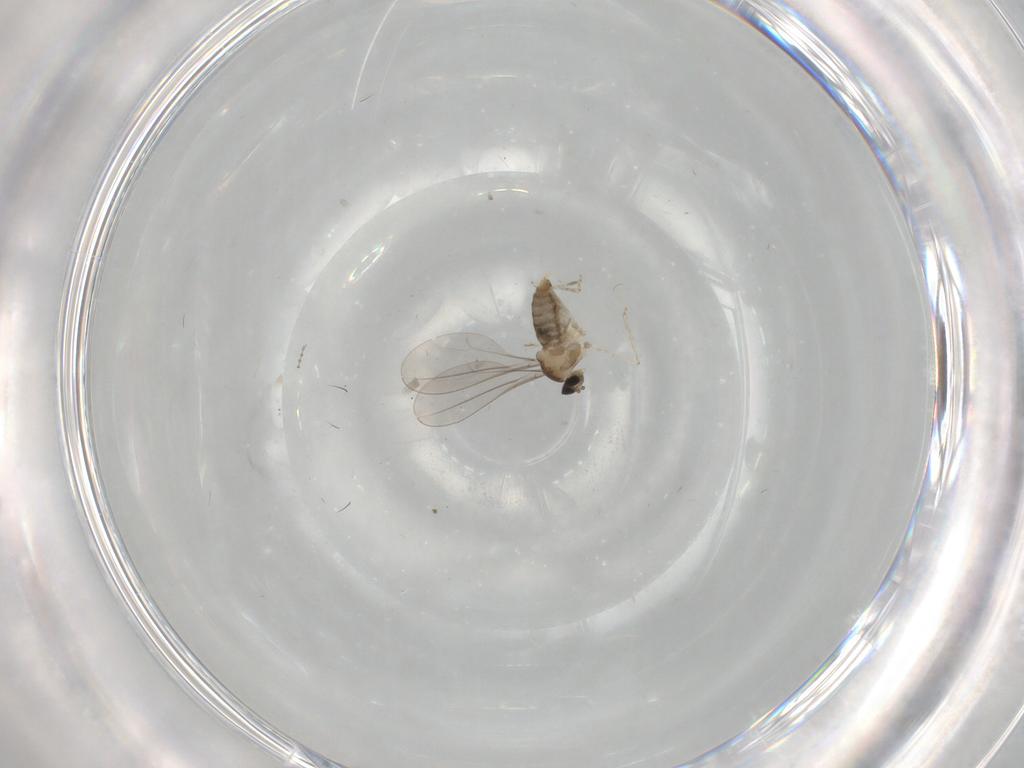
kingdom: Animalia
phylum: Arthropoda
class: Insecta
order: Diptera
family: Cecidomyiidae
